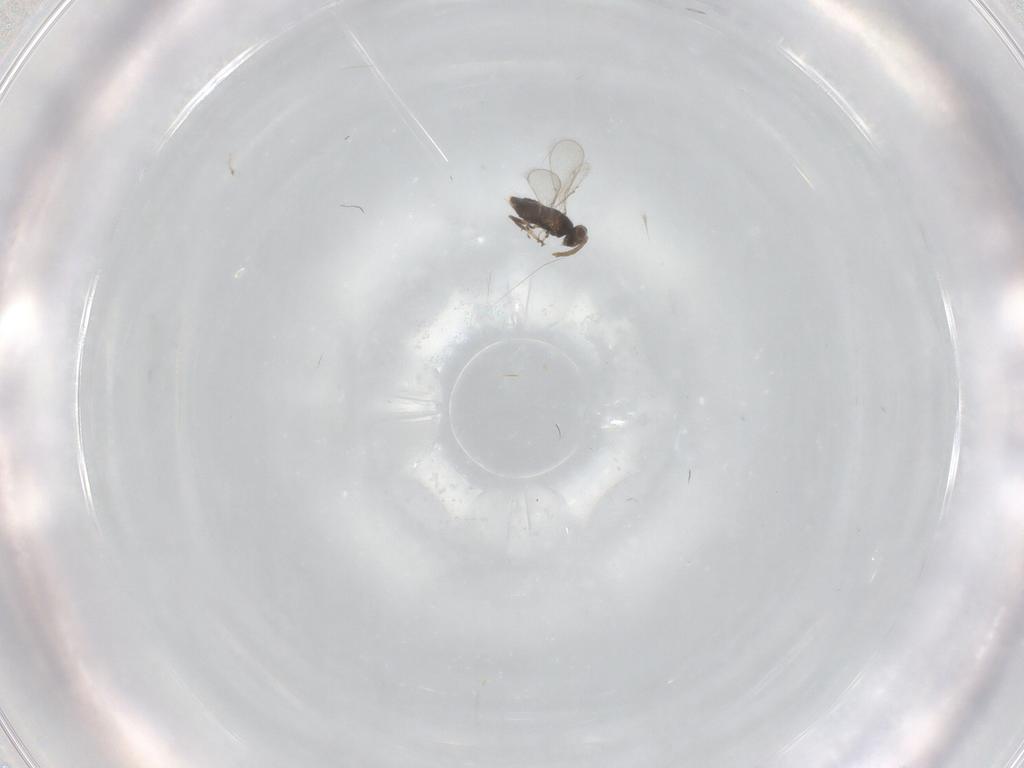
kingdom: Animalia
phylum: Arthropoda
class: Insecta
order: Hymenoptera
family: Aphelinidae
